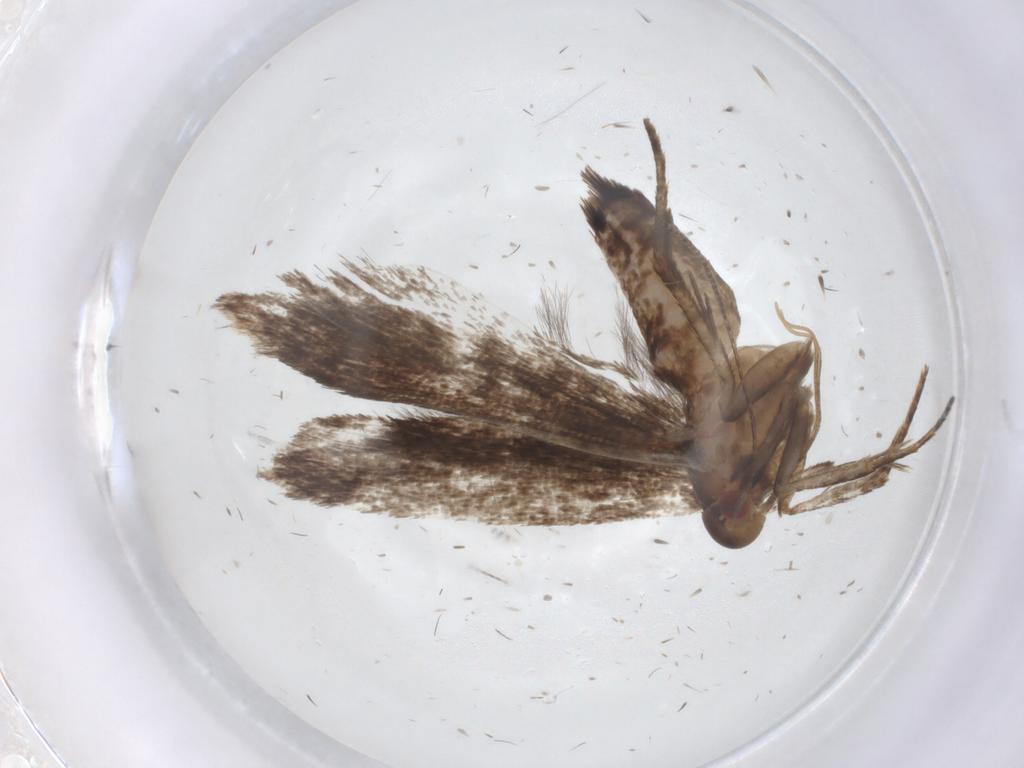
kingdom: Animalia
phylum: Arthropoda
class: Insecta
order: Lepidoptera
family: Gelechiidae
